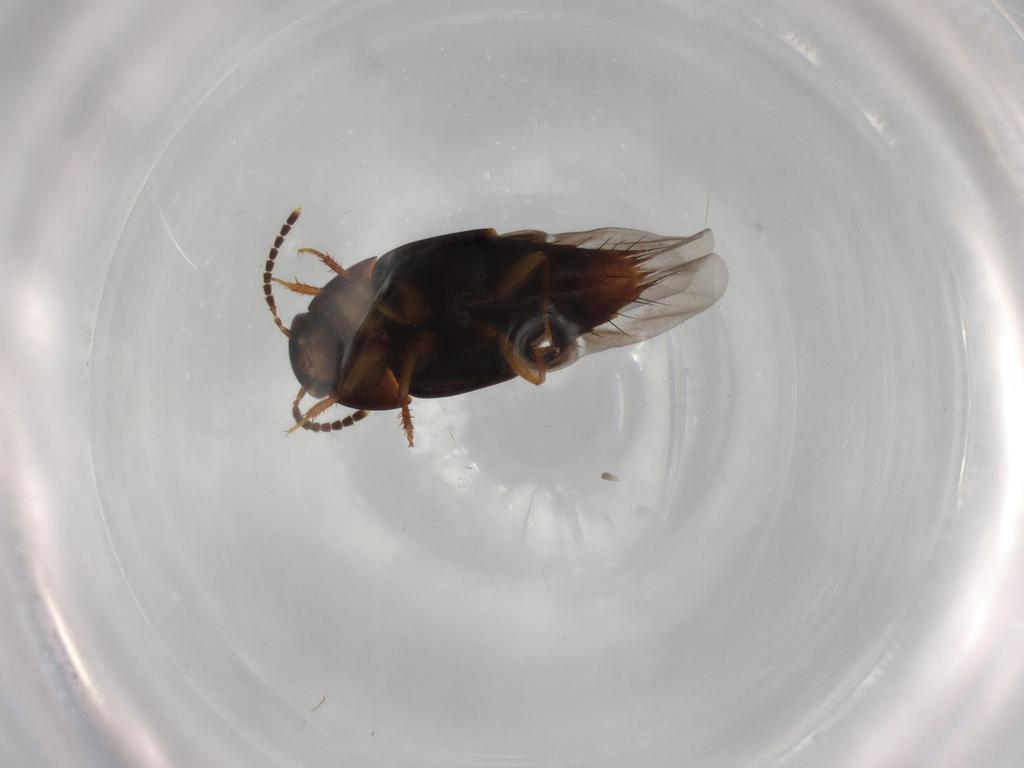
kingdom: Animalia
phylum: Arthropoda
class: Insecta
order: Coleoptera
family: Staphylinidae
